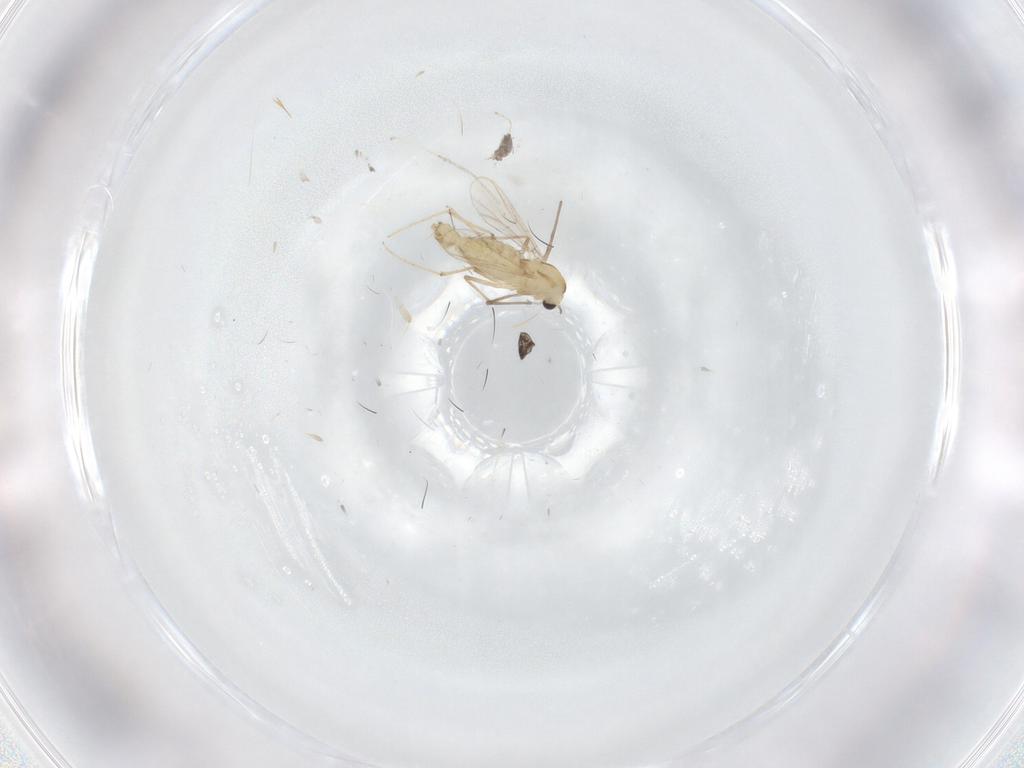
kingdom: Animalia
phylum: Arthropoda
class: Insecta
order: Diptera
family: Chironomidae
